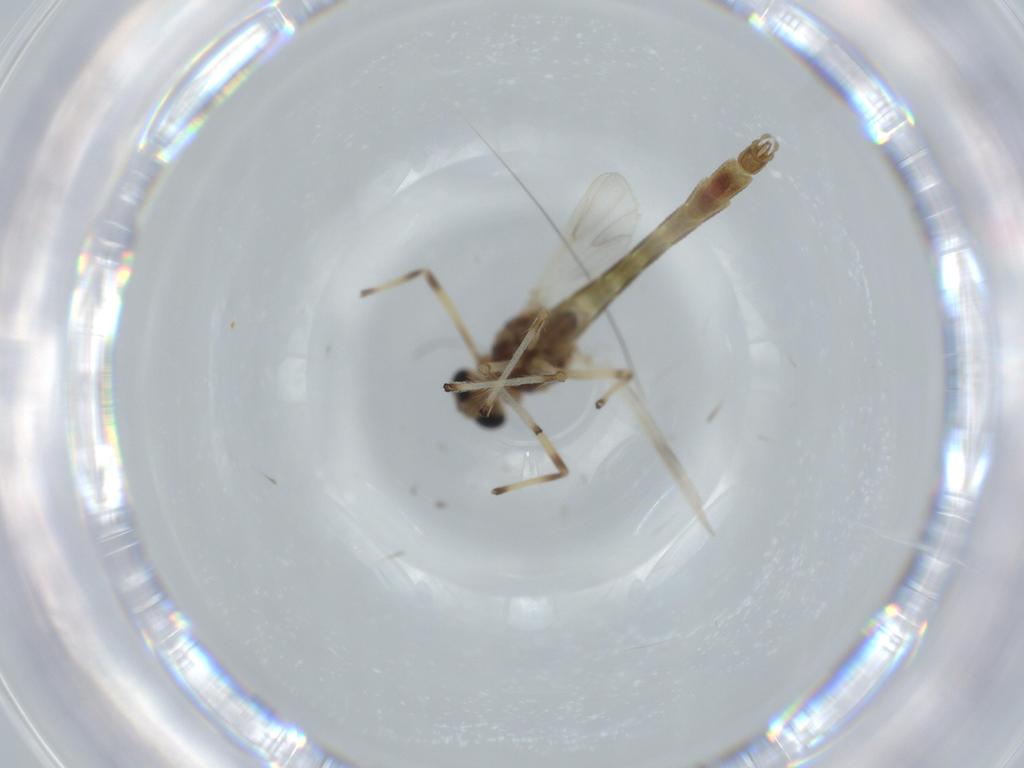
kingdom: Animalia
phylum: Arthropoda
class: Insecta
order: Diptera
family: Chironomidae
